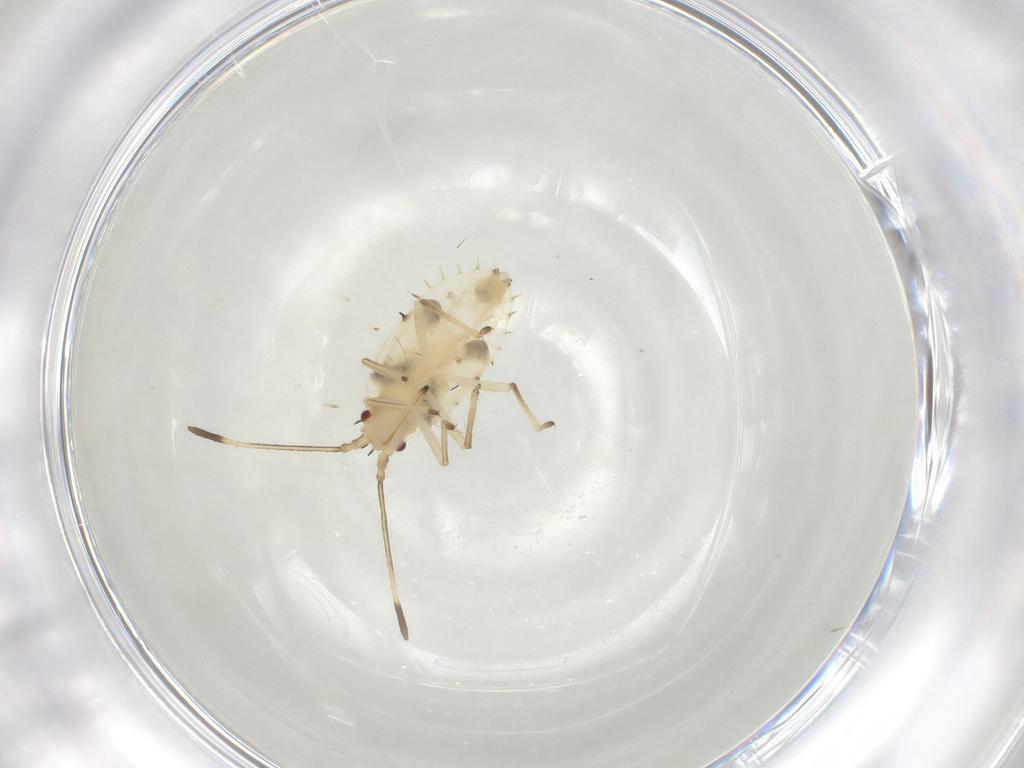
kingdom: Animalia
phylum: Arthropoda
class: Insecta
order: Hemiptera
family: Tingidae
